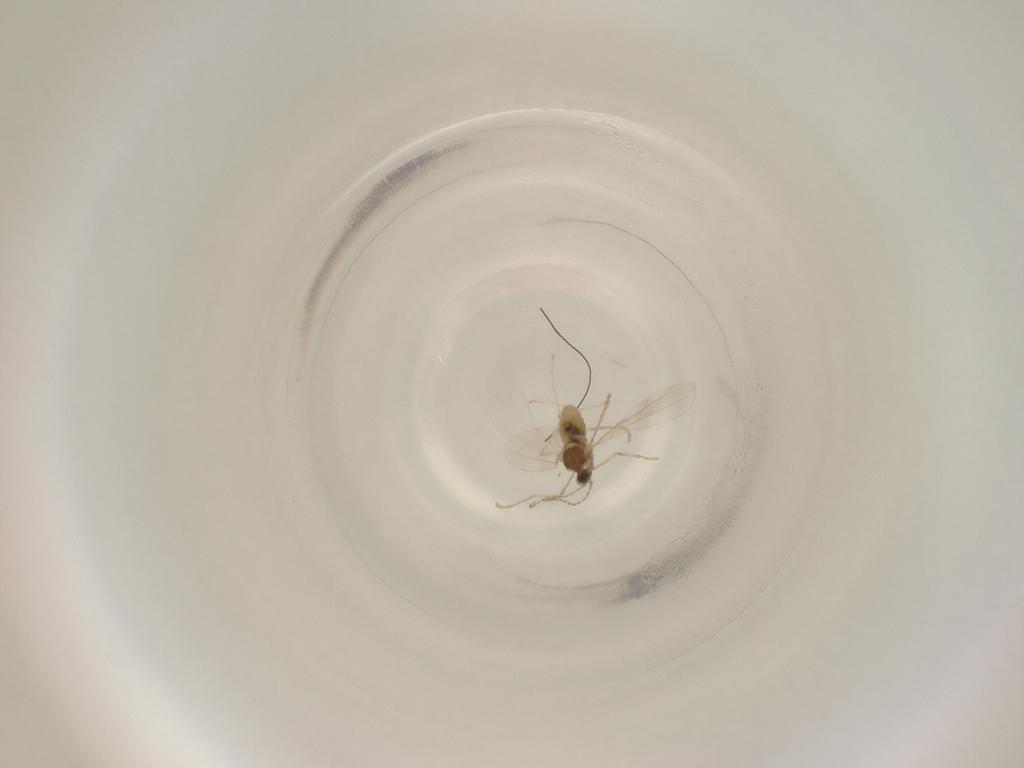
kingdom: Animalia
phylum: Arthropoda
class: Insecta
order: Diptera
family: Cecidomyiidae
